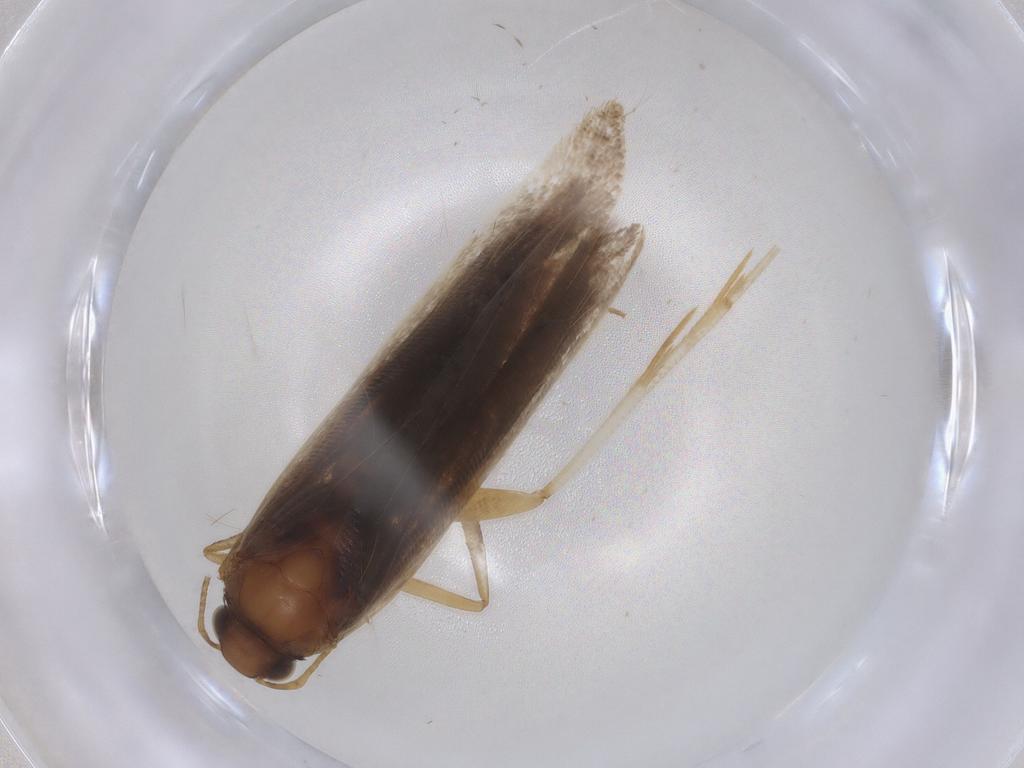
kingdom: Animalia
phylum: Arthropoda
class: Insecta
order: Lepidoptera
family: Gelechiidae
